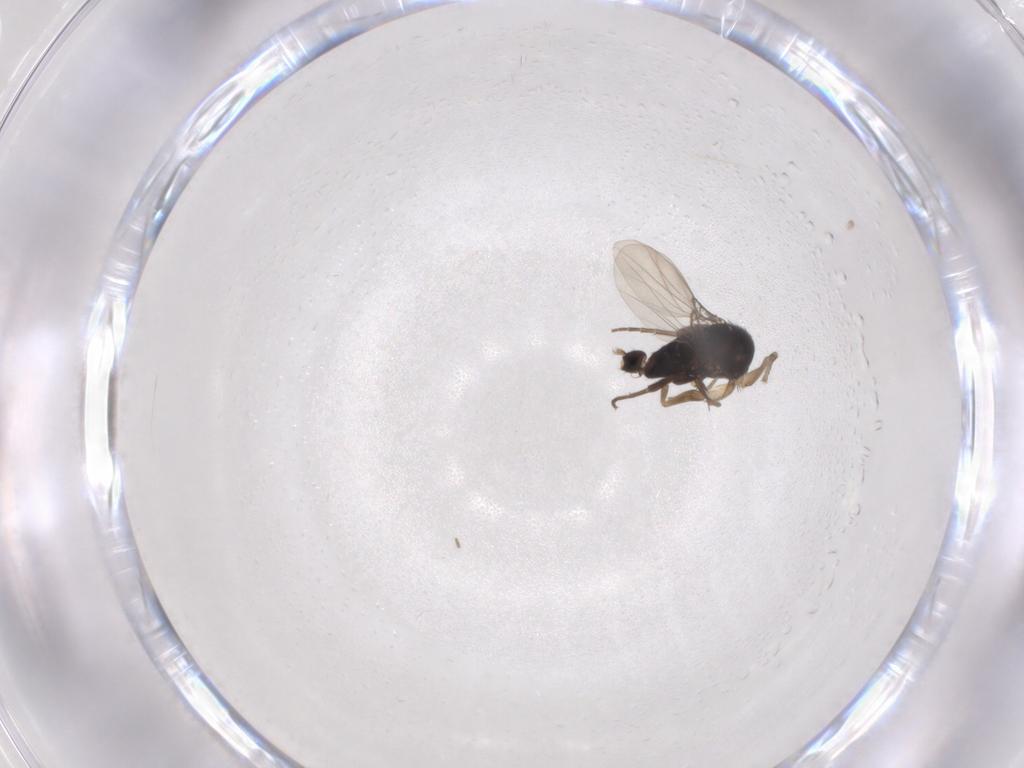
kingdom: Animalia
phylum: Arthropoda
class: Insecta
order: Diptera
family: Phoridae
